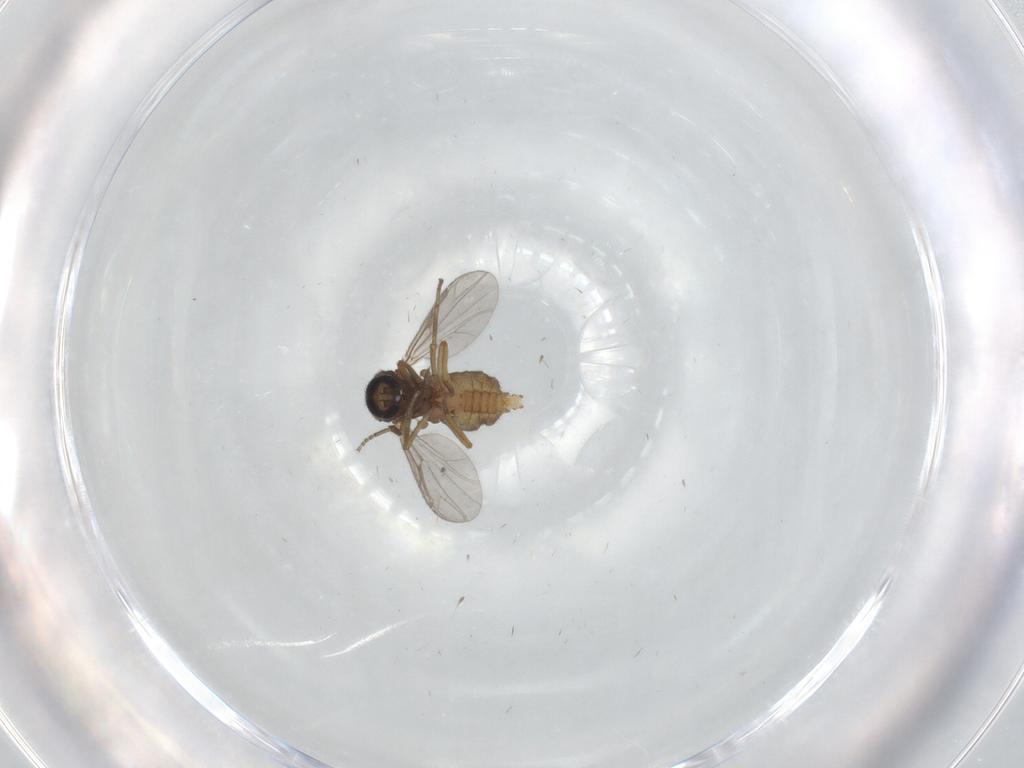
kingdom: Animalia
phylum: Arthropoda
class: Insecta
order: Diptera
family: Ceratopogonidae
